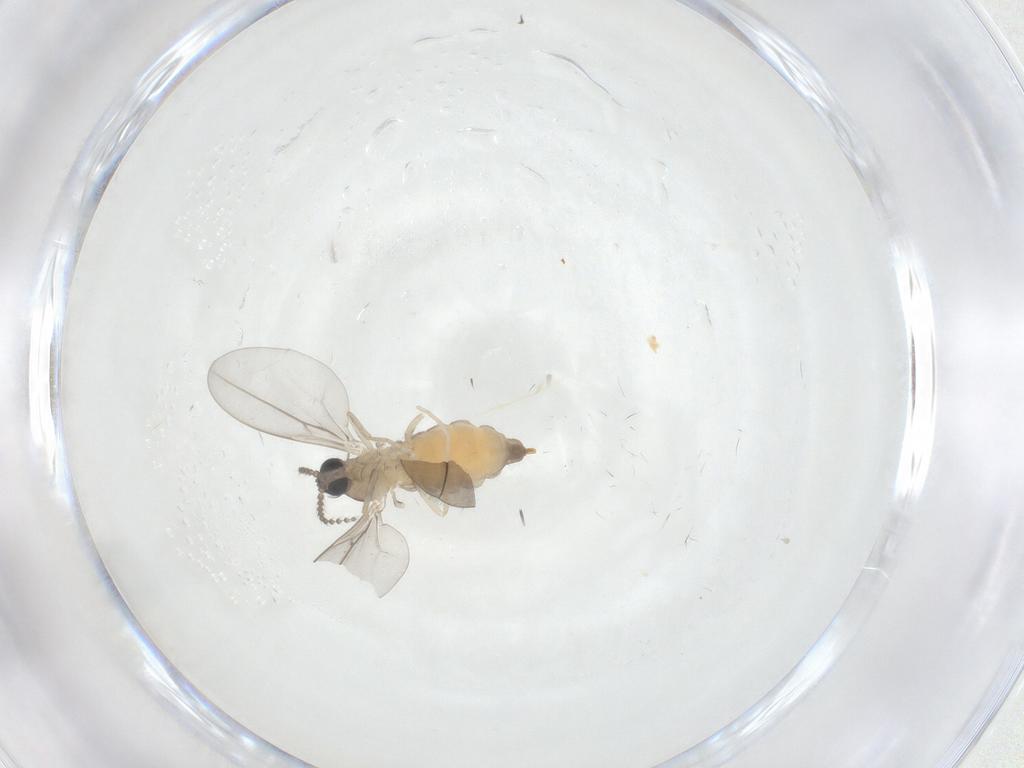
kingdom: Animalia
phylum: Arthropoda
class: Insecta
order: Diptera
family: Cecidomyiidae
